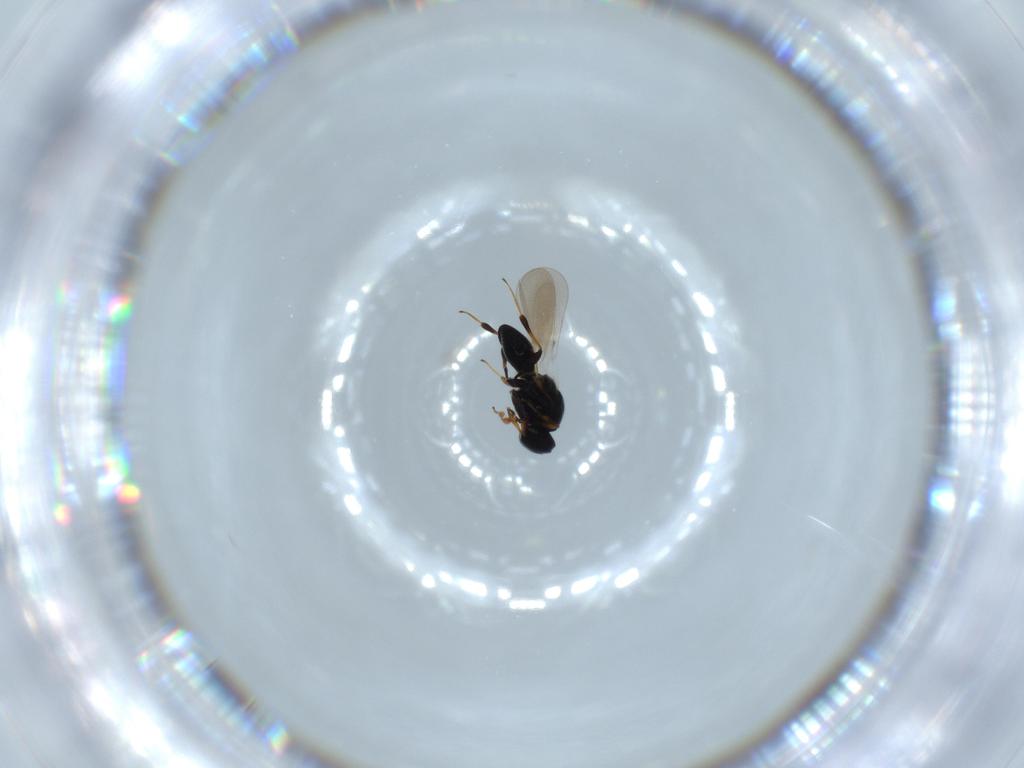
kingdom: Animalia
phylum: Arthropoda
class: Insecta
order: Hymenoptera
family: Platygastridae
